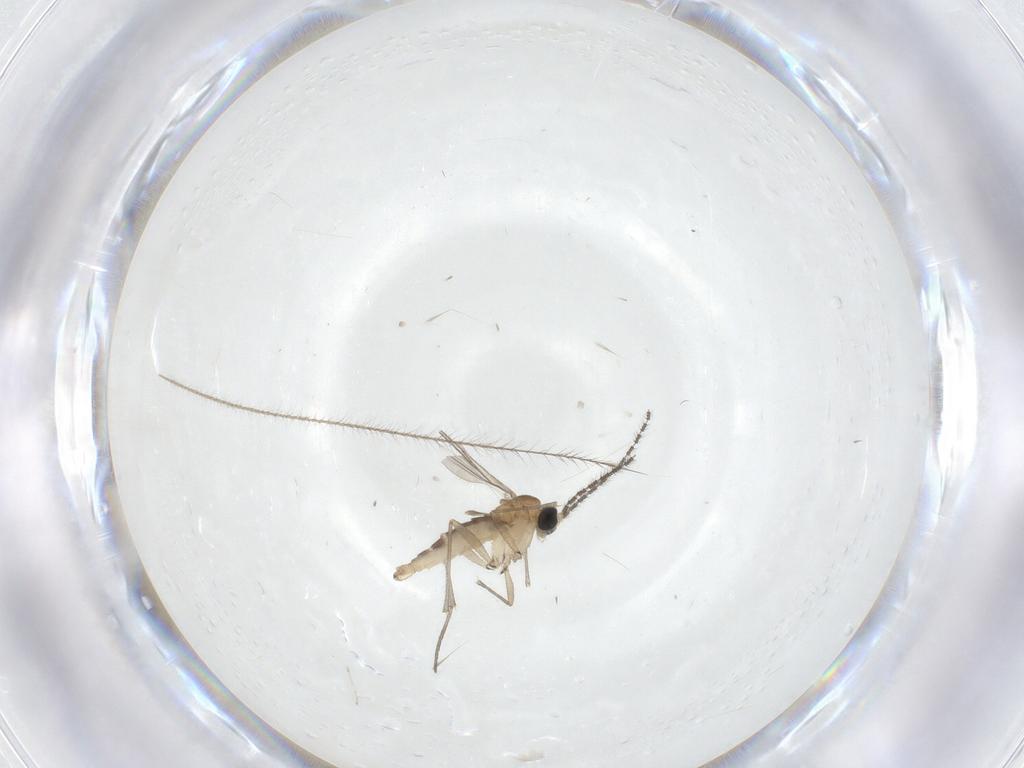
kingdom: Animalia
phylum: Arthropoda
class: Insecta
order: Diptera
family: Sciaridae
